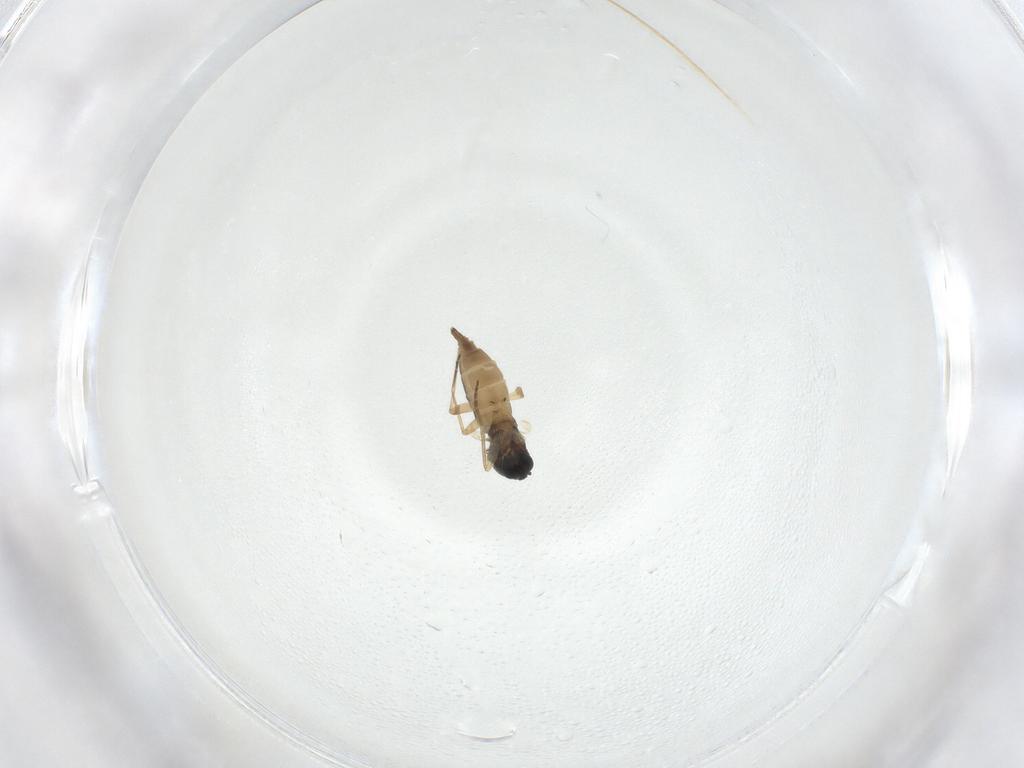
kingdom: Animalia
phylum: Arthropoda
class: Insecta
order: Diptera
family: Sciaridae
